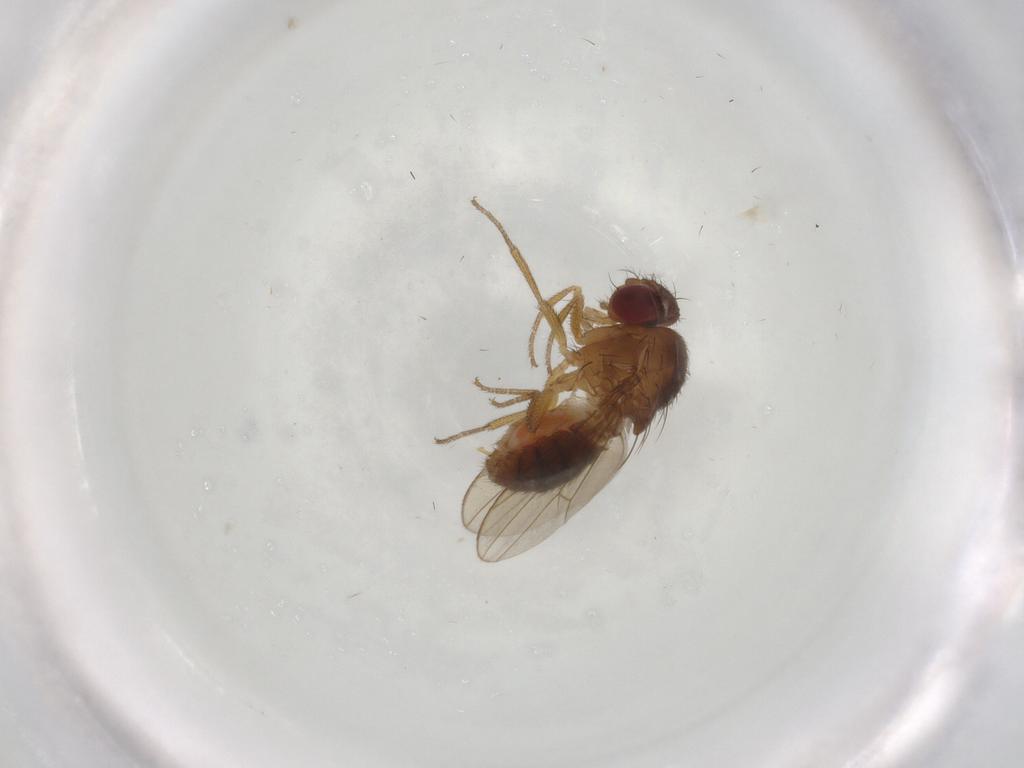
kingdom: Animalia
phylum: Arthropoda
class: Insecta
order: Diptera
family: Drosophilidae
